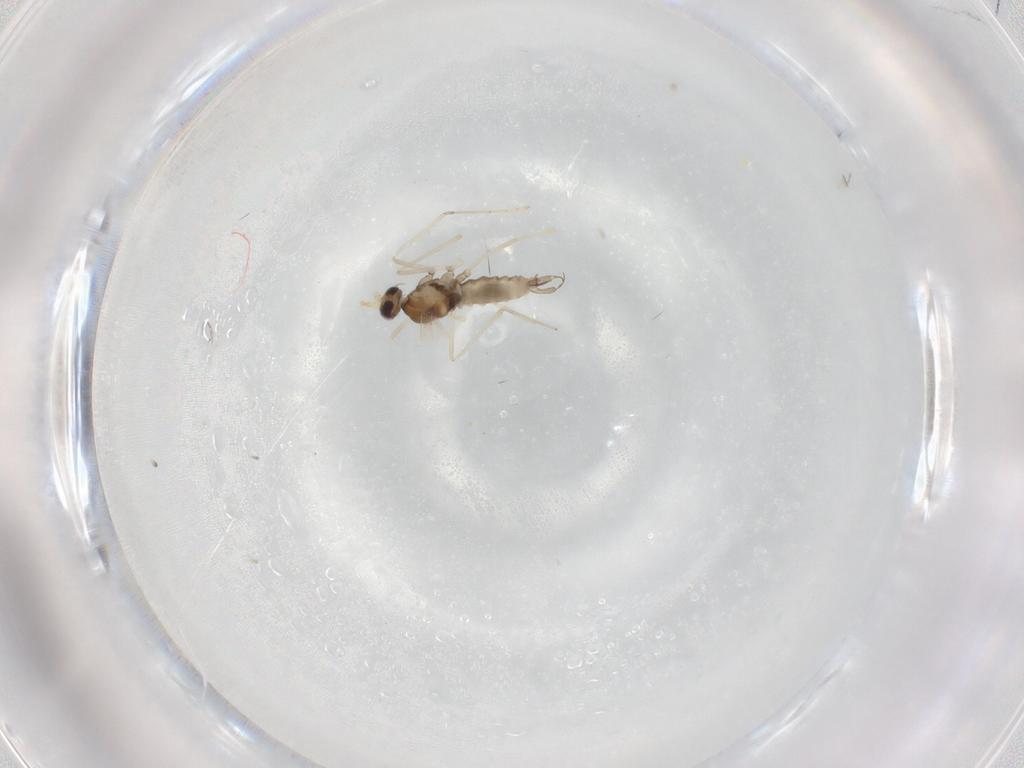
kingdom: Animalia
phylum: Arthropoda
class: Insecta
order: Diptera
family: Cecidomyiidae
